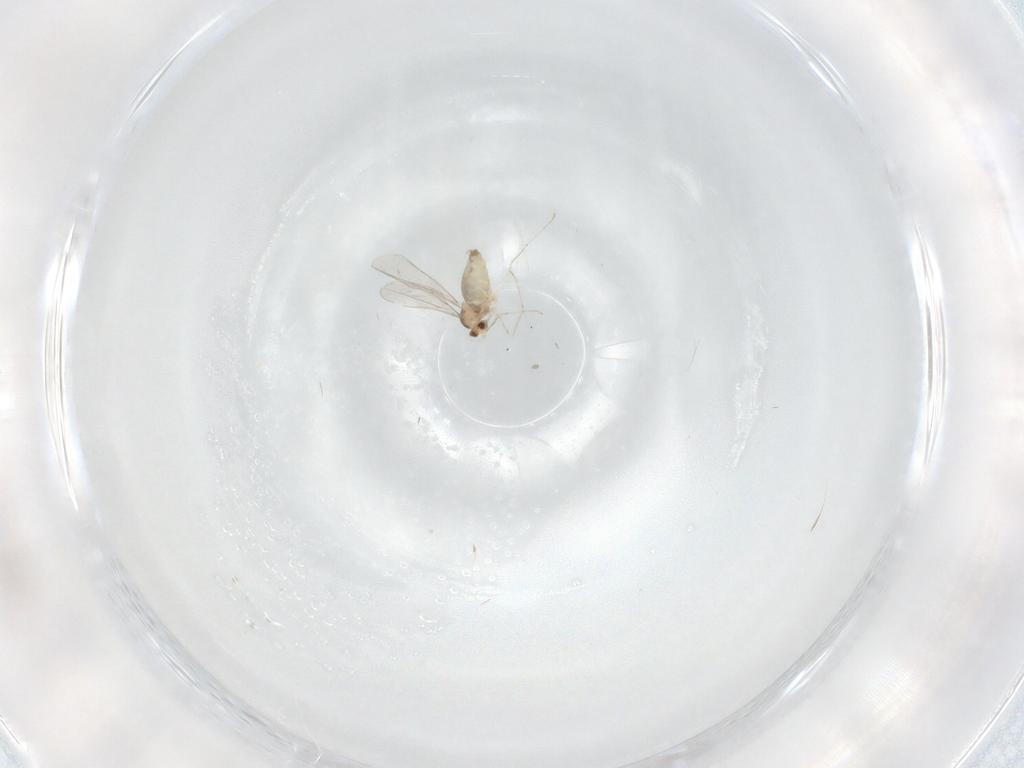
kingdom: Animalia
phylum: Arthropoda
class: Insecta
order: Diptera
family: Cecidomyiidae
